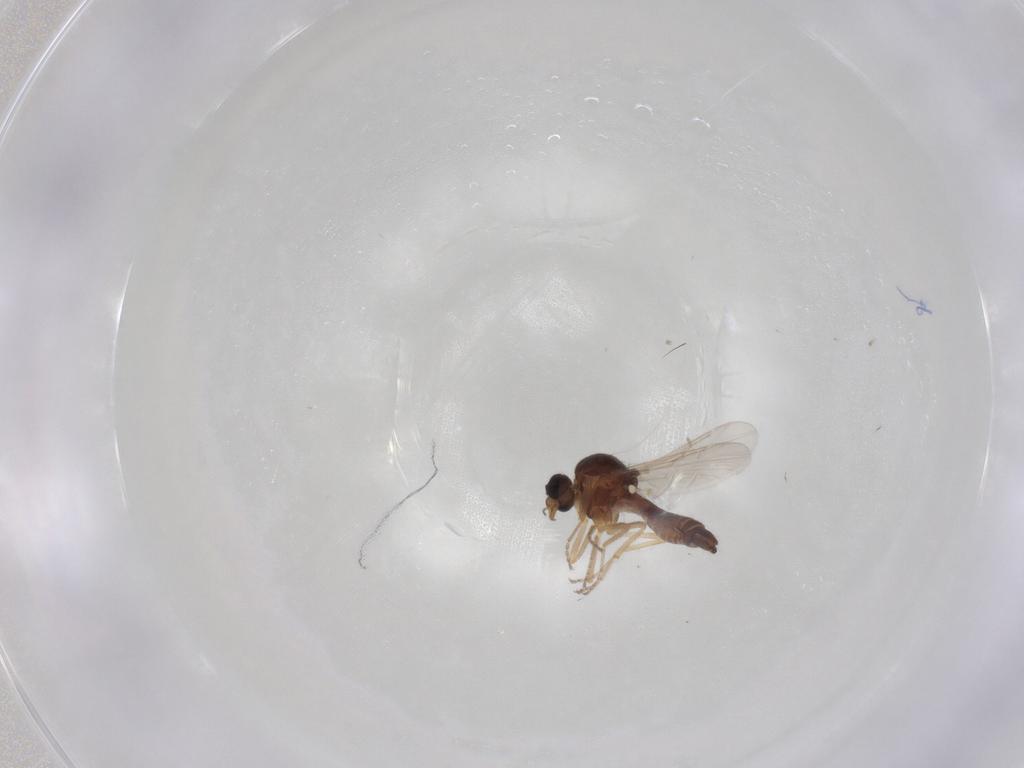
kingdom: Animalia
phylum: Arthropoda
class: Insecta
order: Diptera
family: Ceratopogonidae
